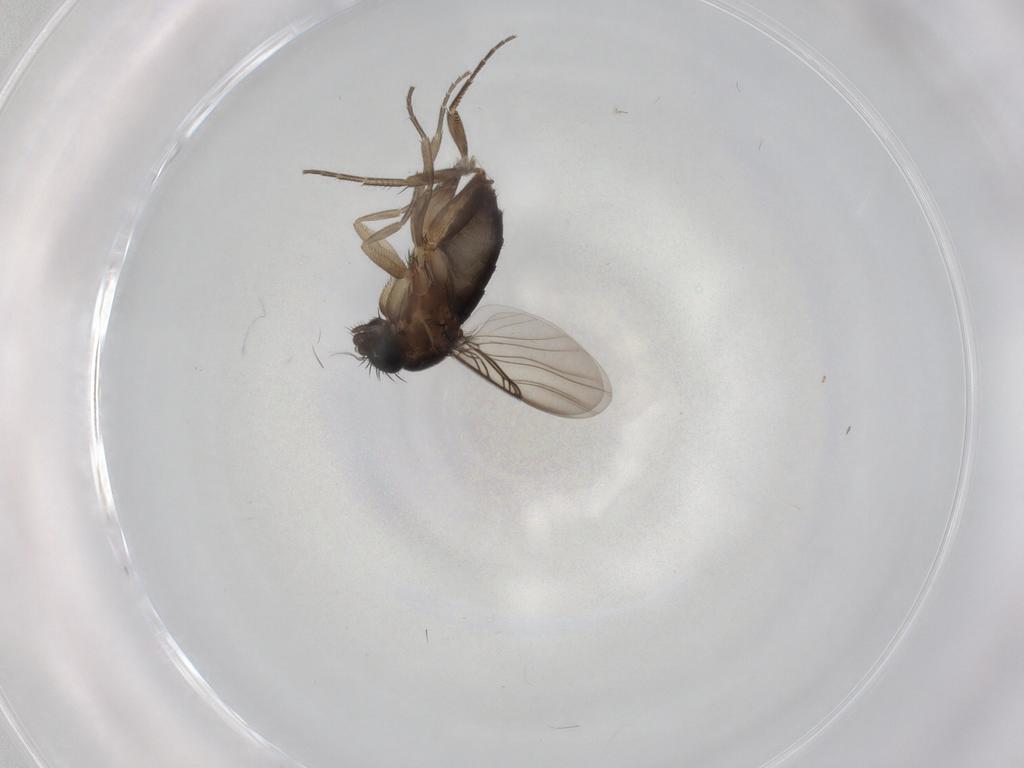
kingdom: Animalia
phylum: Arthropoda
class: Insecta
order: Diptera
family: Phoridae
